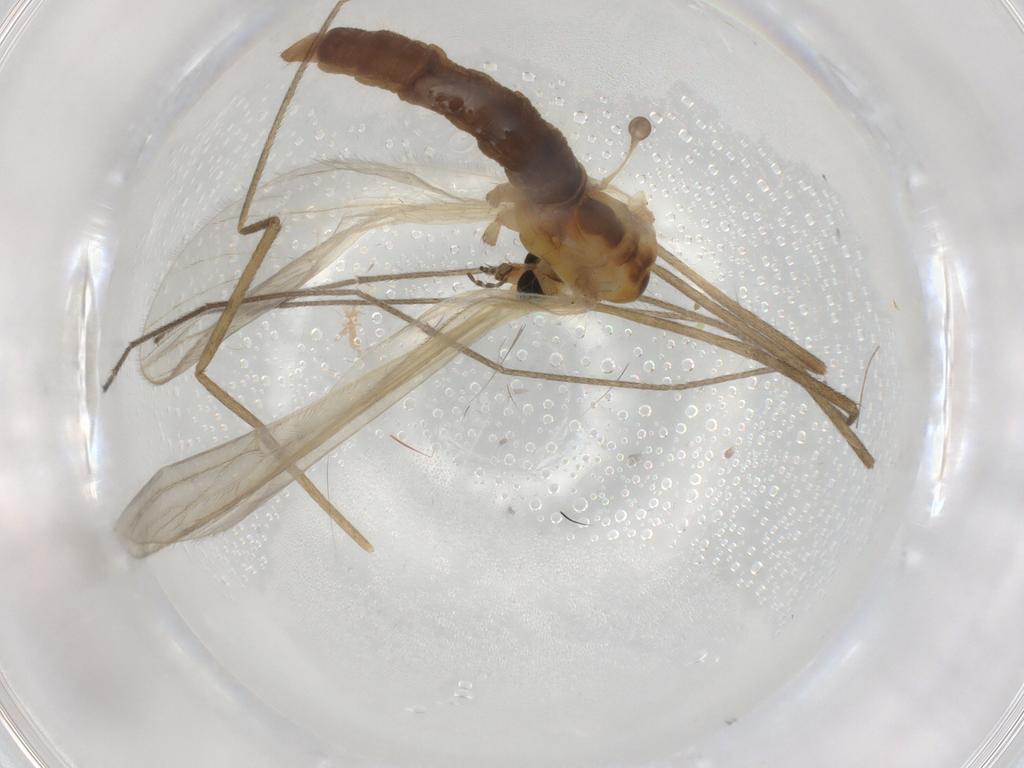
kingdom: Animalia
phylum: Arthropoda
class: Insecta
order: Diptera
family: Limoniidae
